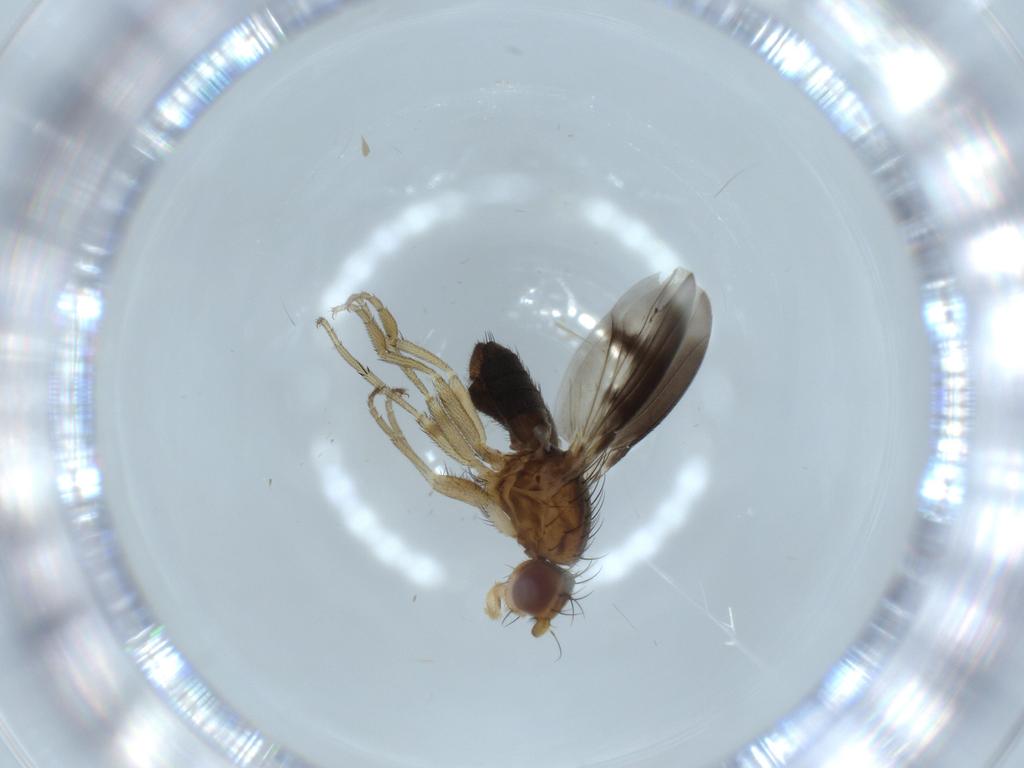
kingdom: Animalia
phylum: Arthropoda
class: Insecta
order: Diptera
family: Heleomyzidae
